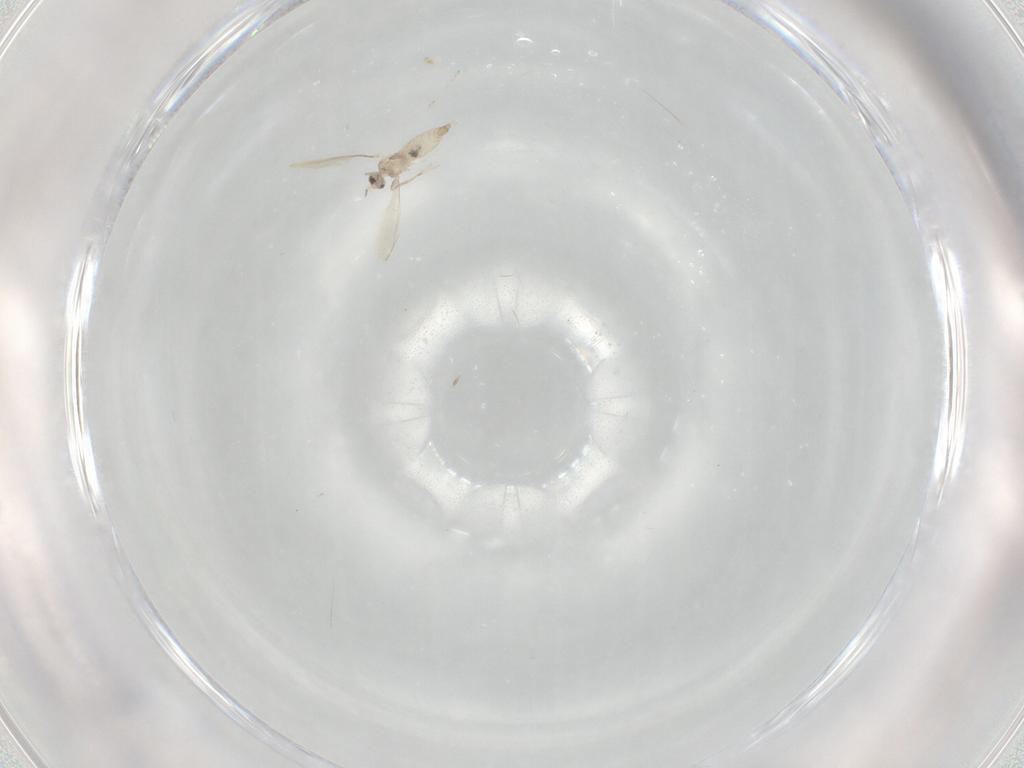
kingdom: Animalia
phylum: Arthropoda
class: Insecta
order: Diptera
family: Cecidomyiidae
